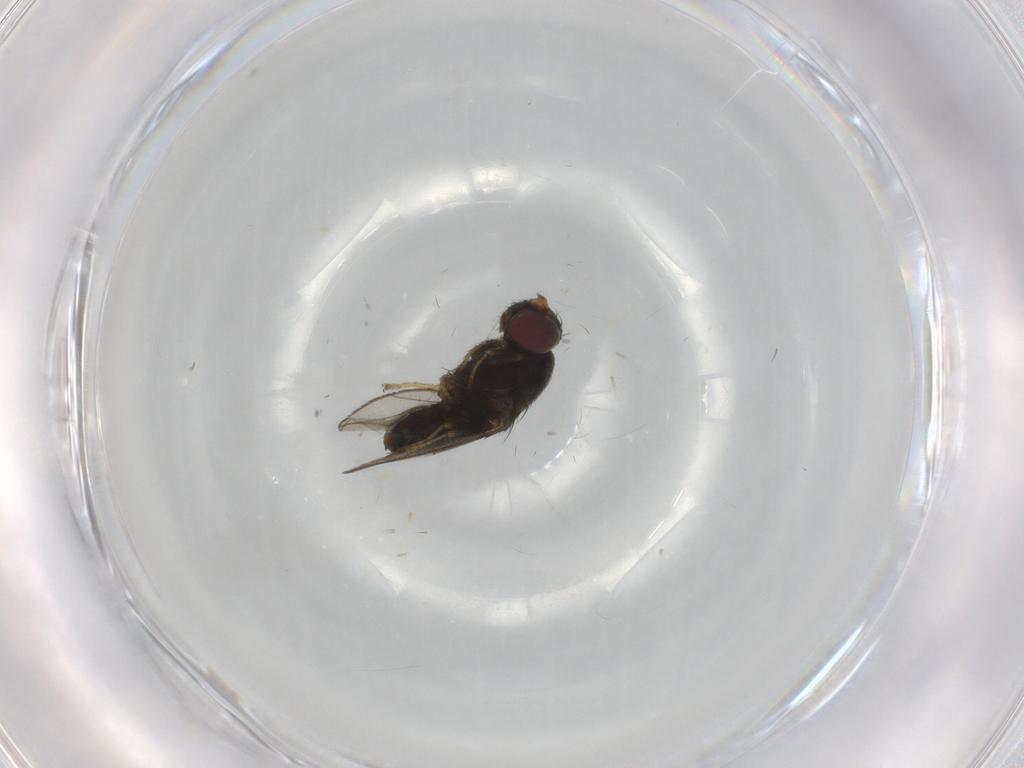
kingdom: Animalia
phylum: Arthropoda
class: Insecta
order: Diptera
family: Limoniidae
